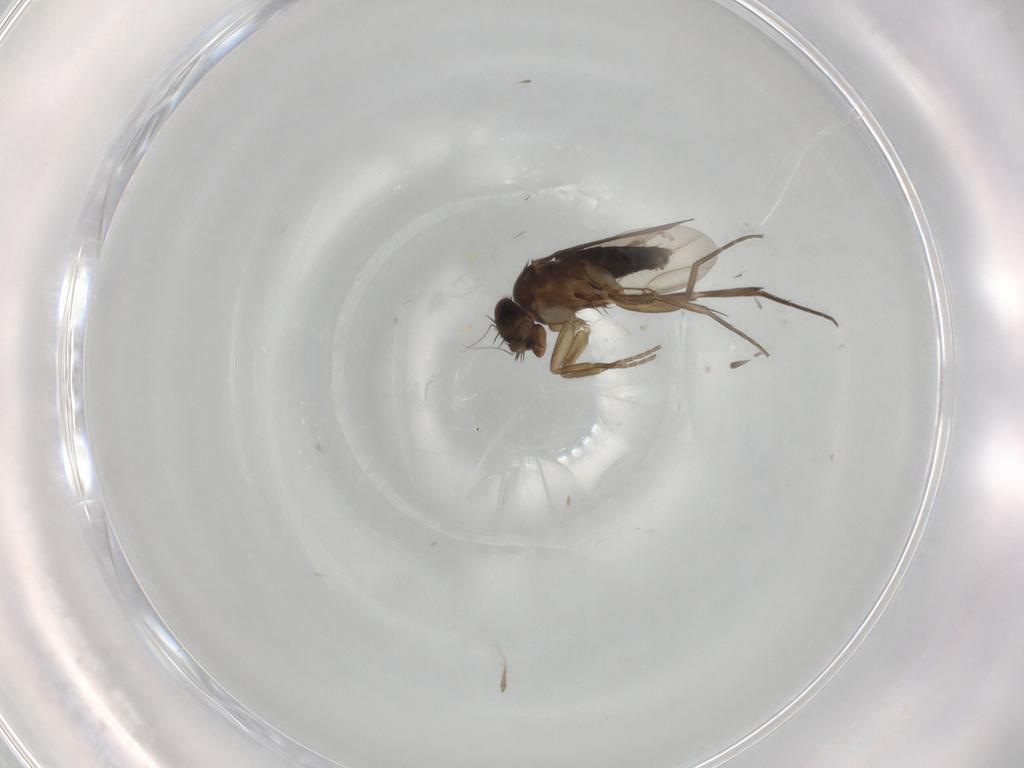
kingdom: Animalia
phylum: Arthropoda
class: Insecta
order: Diptera
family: Phoridae
